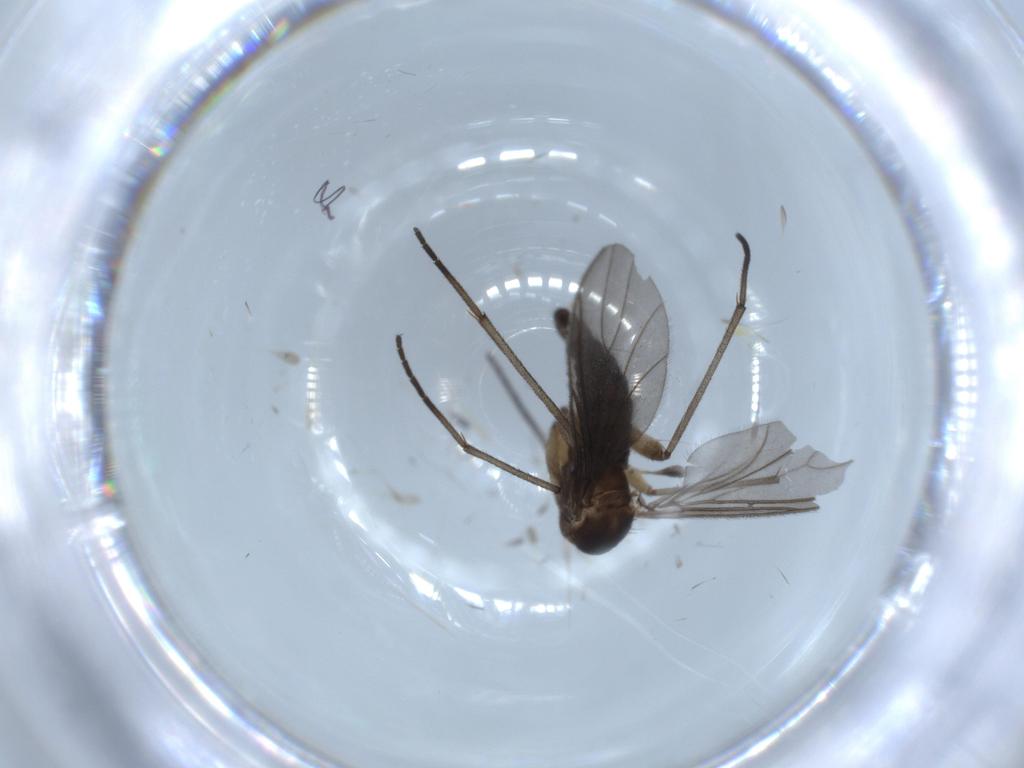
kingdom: Animalia
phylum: Arthropoda
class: Insecta
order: Diptera
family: Sciaridae
